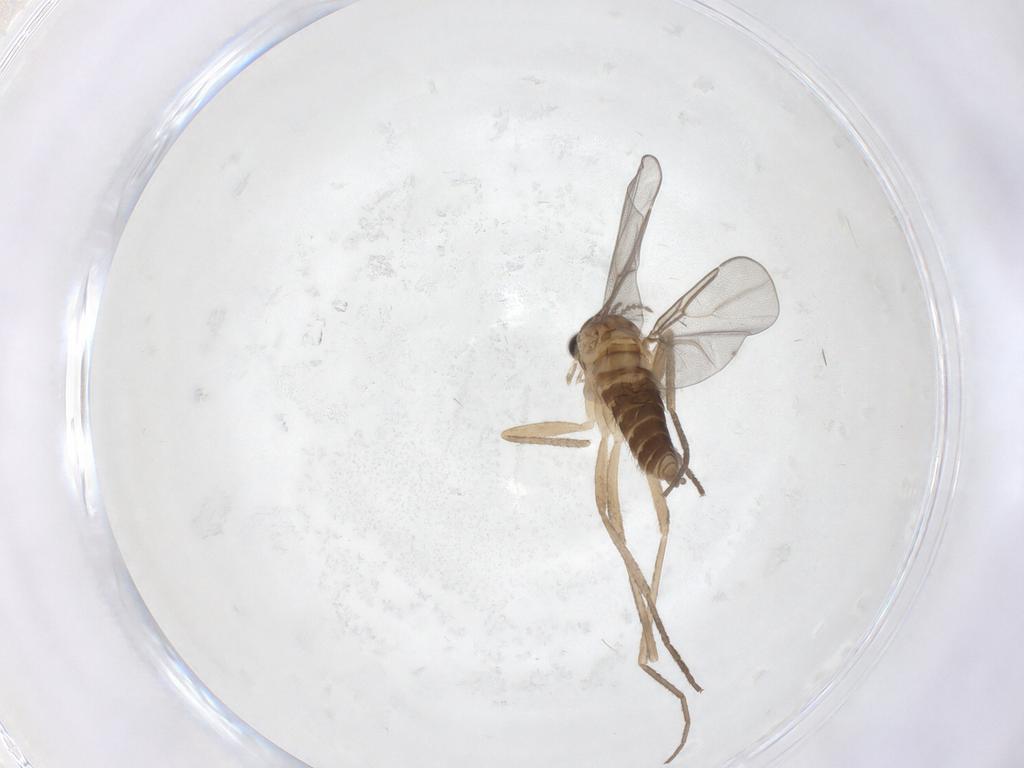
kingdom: Animalia
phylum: Arthropoda
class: Insecta
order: Diptera
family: Cecidomyiidae
